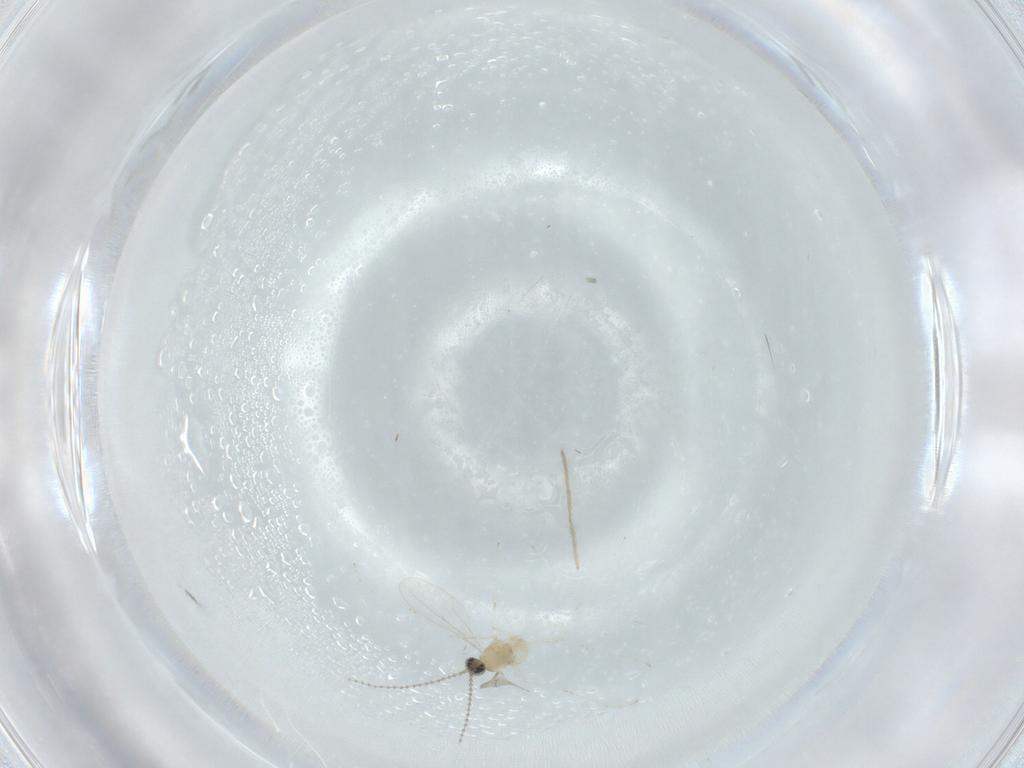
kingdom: Animalia
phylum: Arthropoda
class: Insecta
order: Diptera
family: Cecidomyiidae
